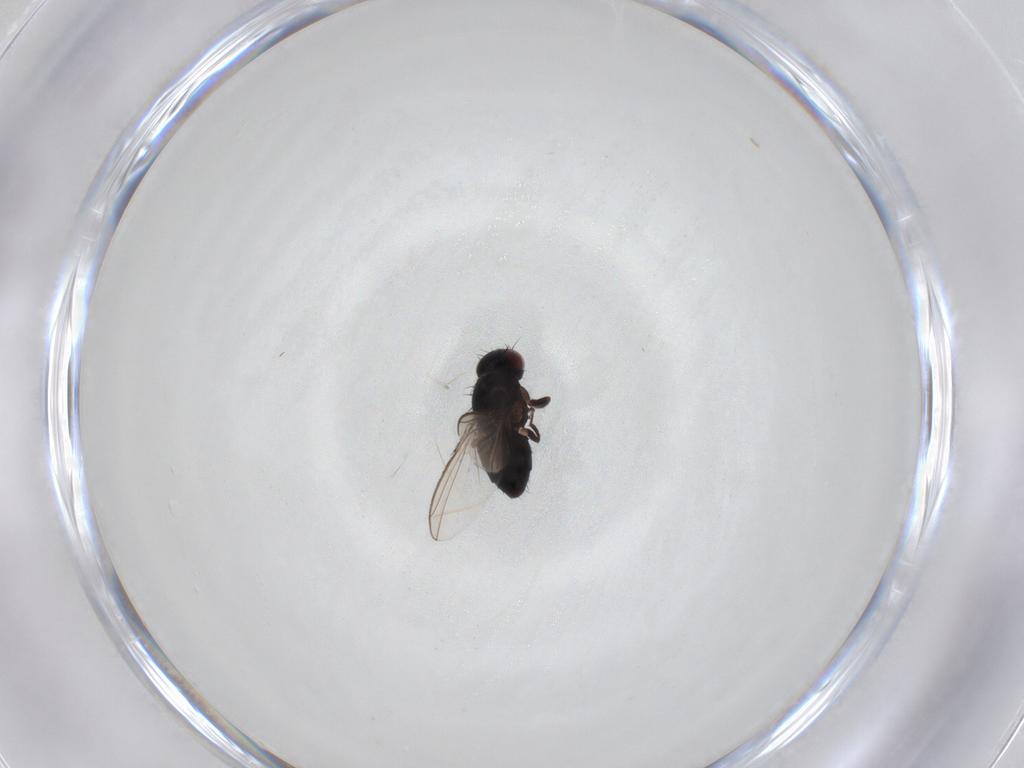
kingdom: Animalia
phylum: Arthropoda
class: Insecta
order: Diptera
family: Carnidae
